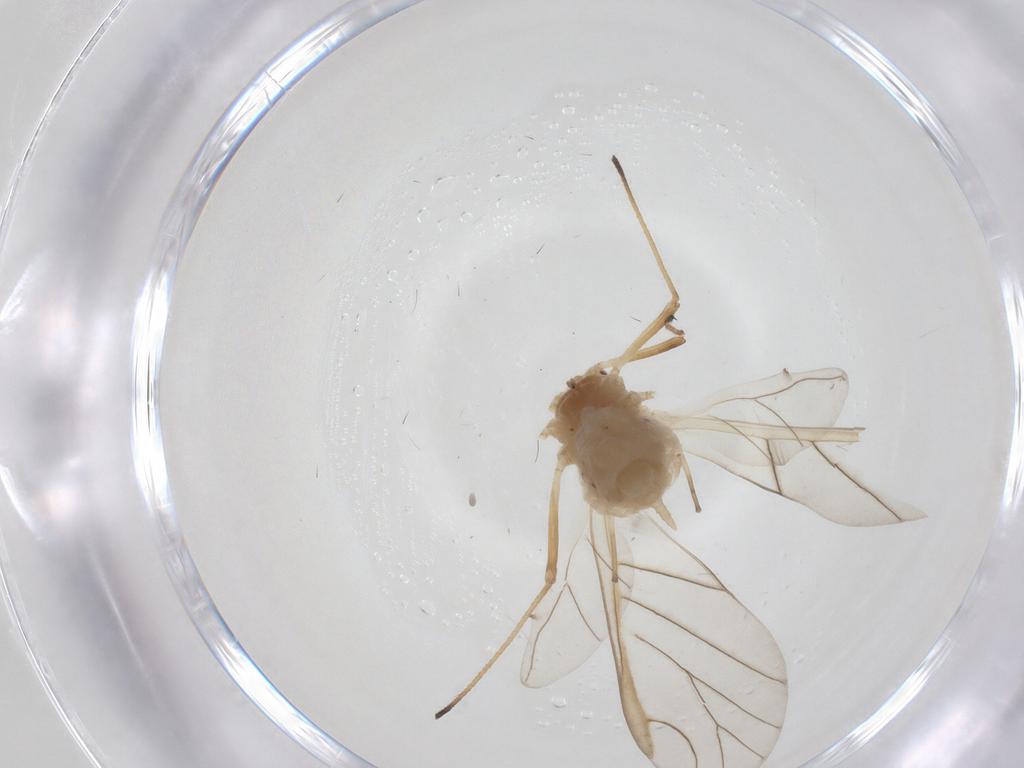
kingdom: Animalia
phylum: Arthropoda
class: Insecta
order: Hemiptera
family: Aphididae
